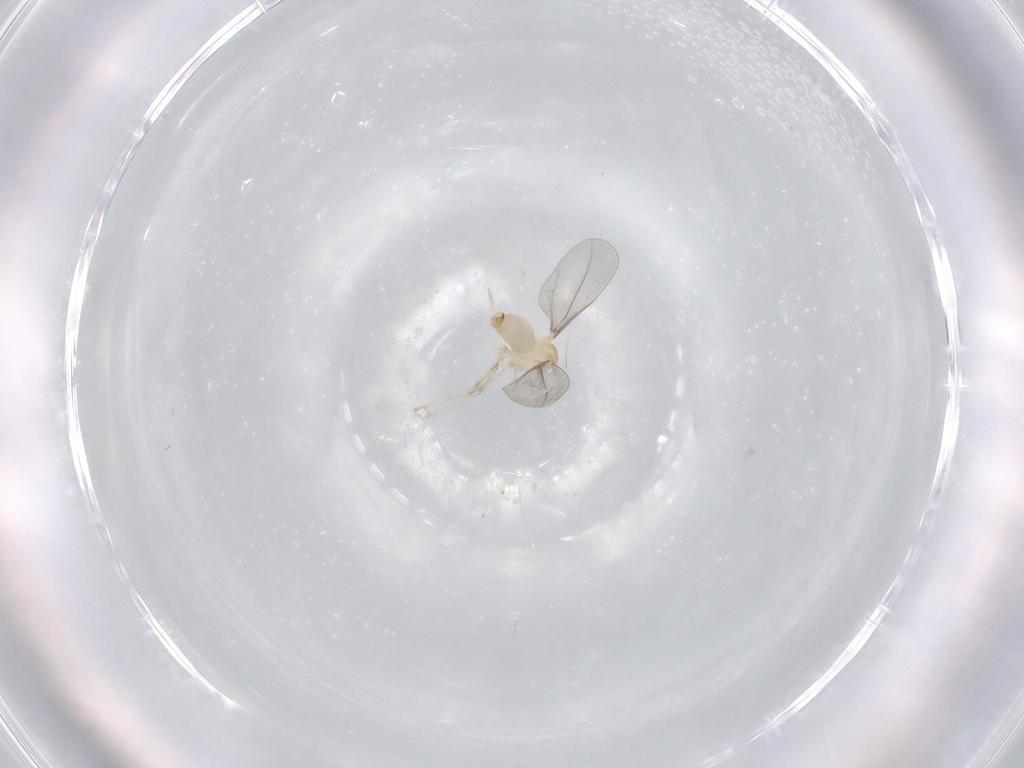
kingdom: Animalia
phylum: Arthropoda
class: Insecta
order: Diptera
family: Cecidomyiidae
